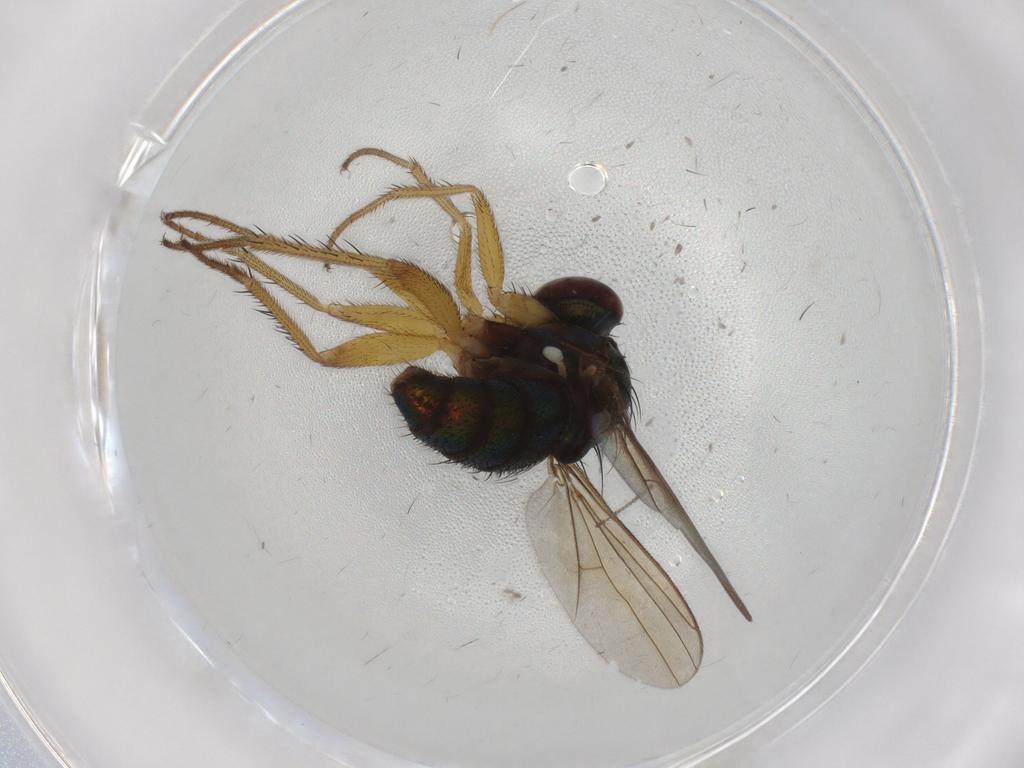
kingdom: Animalia
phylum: Arthropoda
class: Insecta
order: Diptera
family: Dolichopodidae
